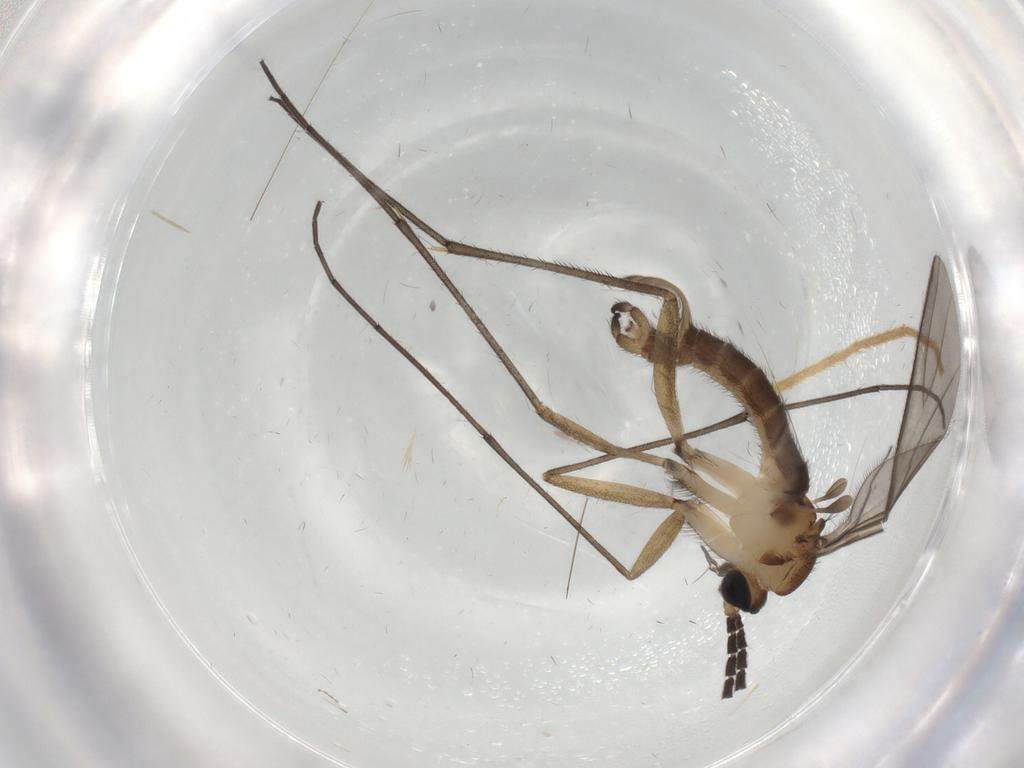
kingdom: Animalia
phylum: Arthropoda
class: Insecta
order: Diptera
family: Sciaridae
